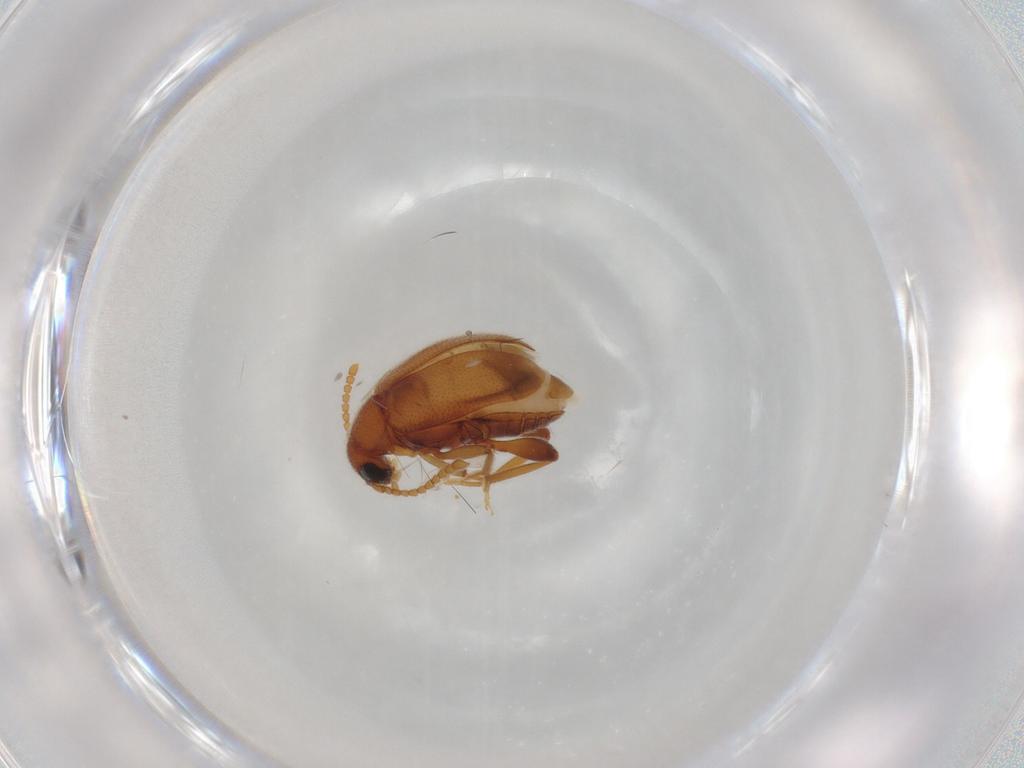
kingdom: Animalia
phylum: Arthropoda
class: Insecta
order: Coleoptera
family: Aderidae
